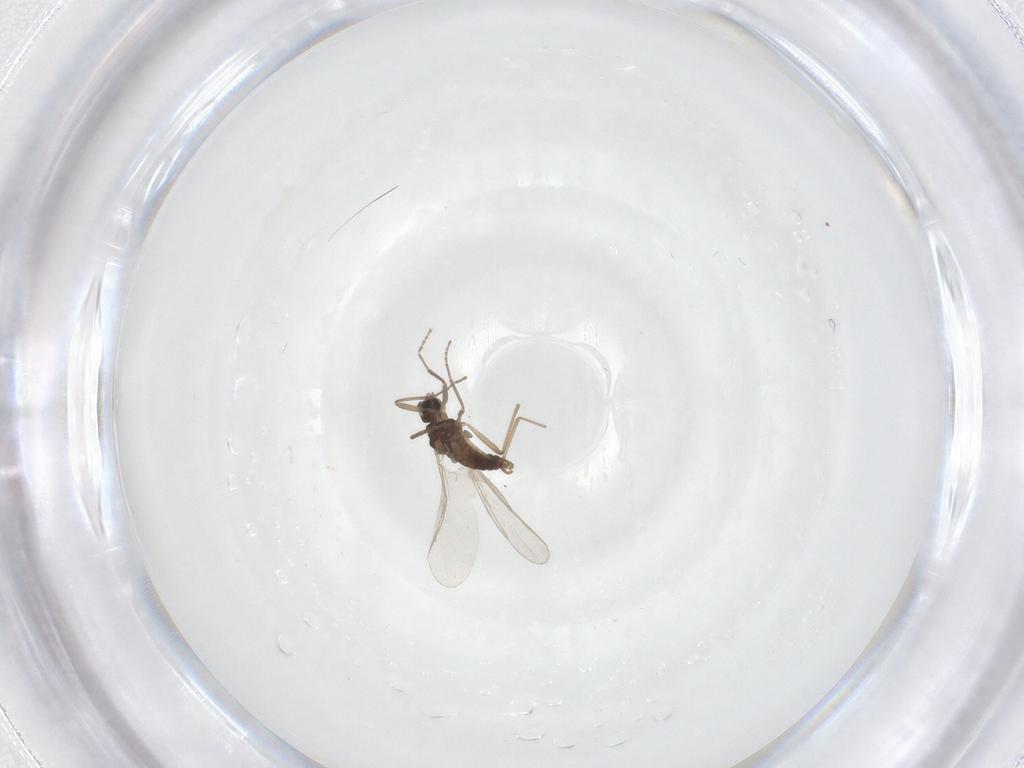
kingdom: Animalia
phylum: Arthropoda
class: Insecta
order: Diptera
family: Cecidomyiidae
